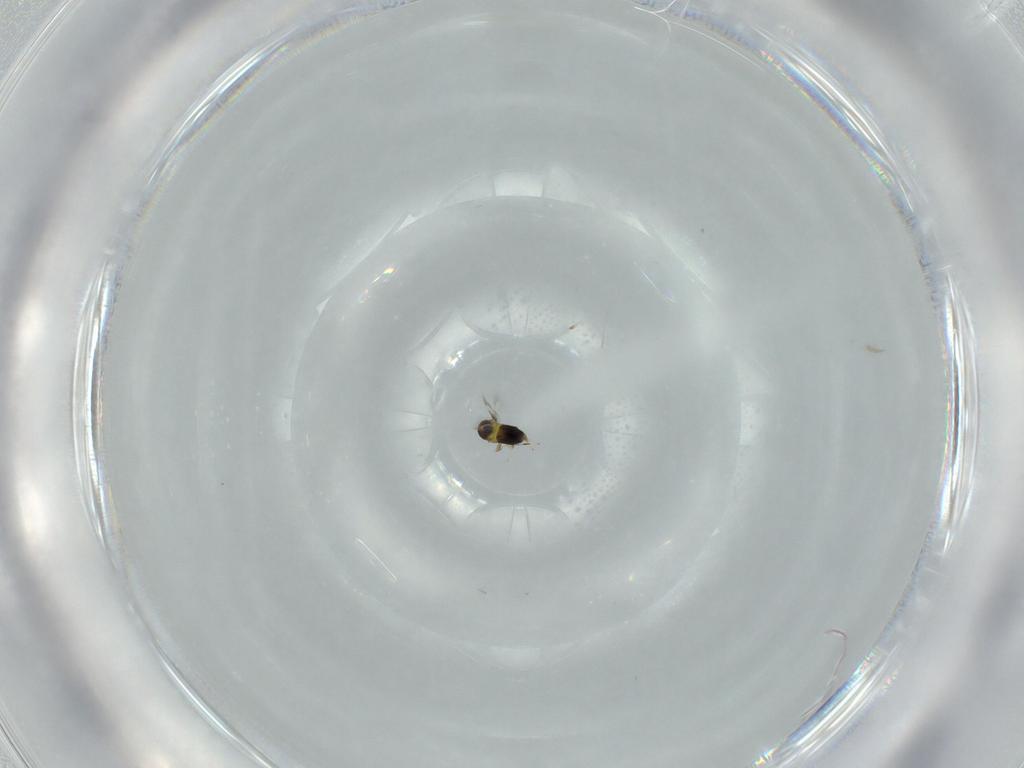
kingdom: Animalia
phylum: Arthropoda
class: Insecta
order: Hymenoptera
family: Signiphoridae
